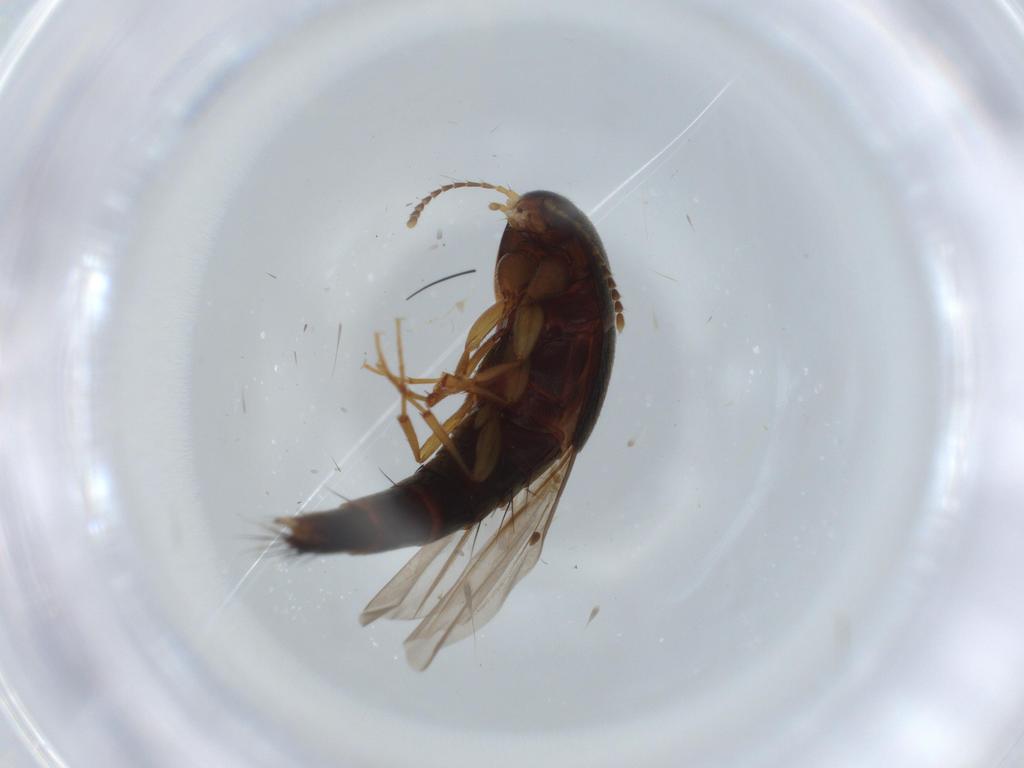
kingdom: Animalia
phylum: Arthropoda
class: Insecta
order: Coleoptera
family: Staphylinidae
